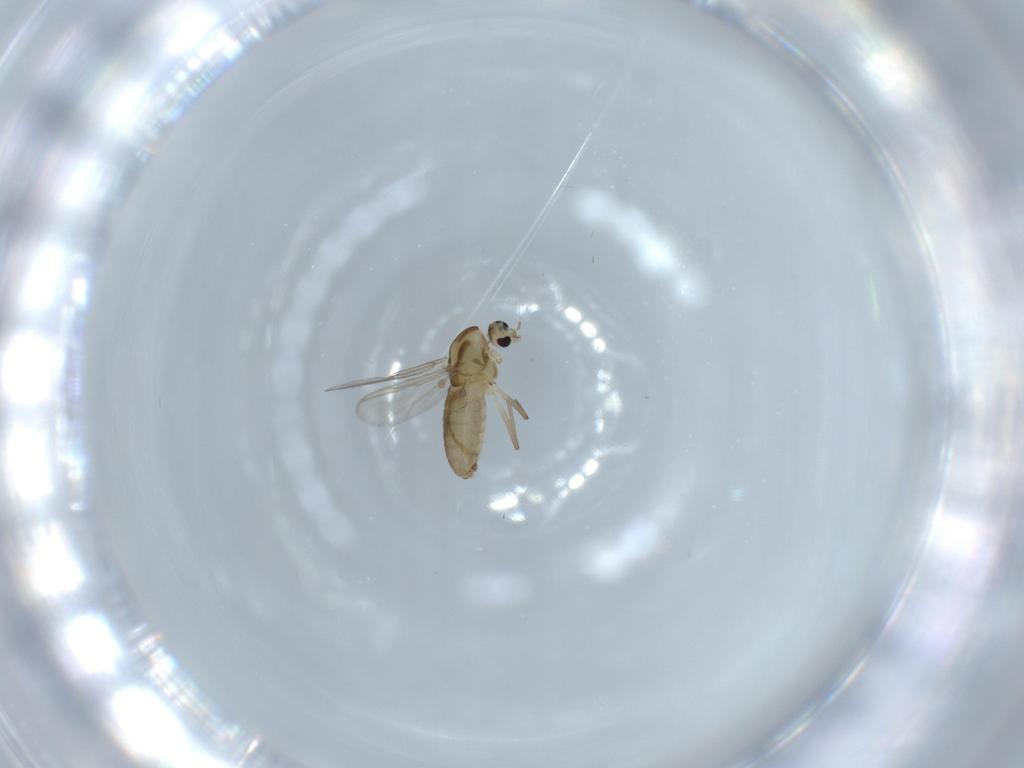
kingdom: Animalia
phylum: Arthropoda
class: Insecta
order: Diptera
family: Chironomidae
